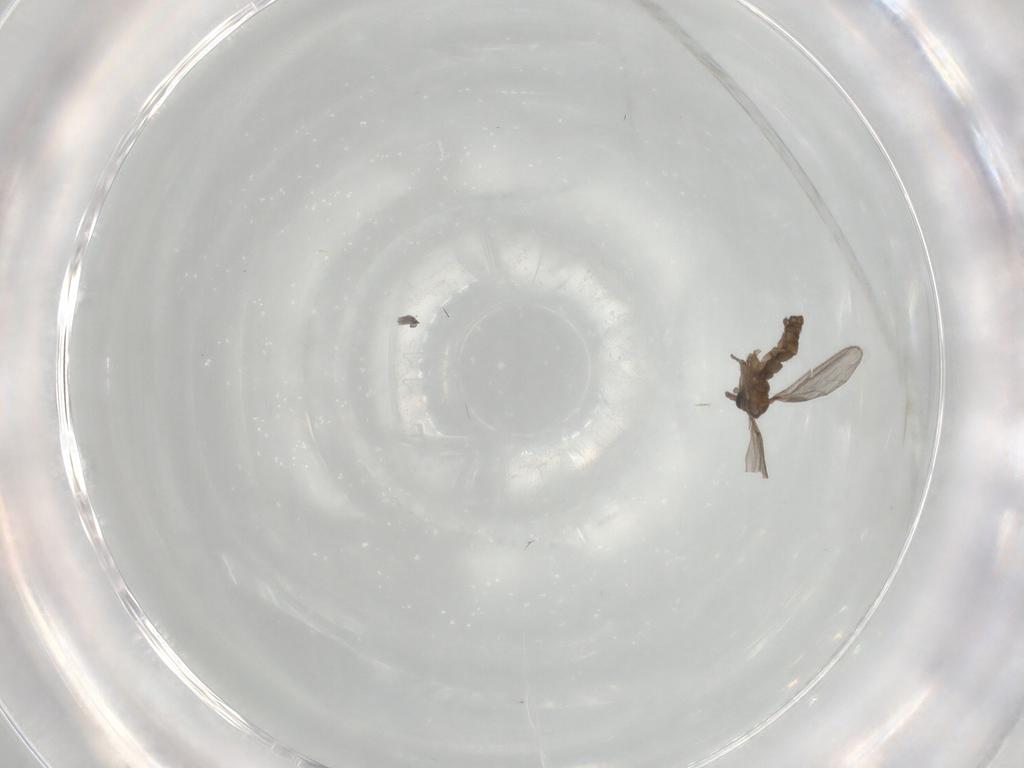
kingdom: Animalia
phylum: Arthropoda
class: Insecta
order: Diptera
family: Sciaridae
